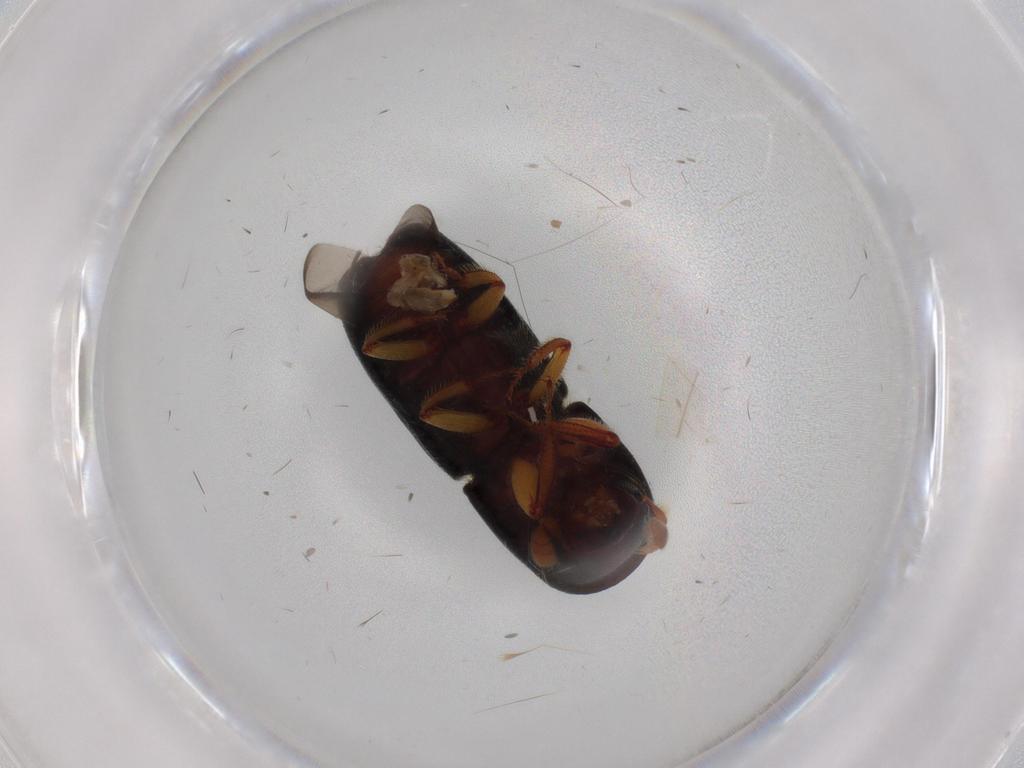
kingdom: Animalia
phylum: Arthropoda
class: Insecta
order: Coleoptera
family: Curculionidae
